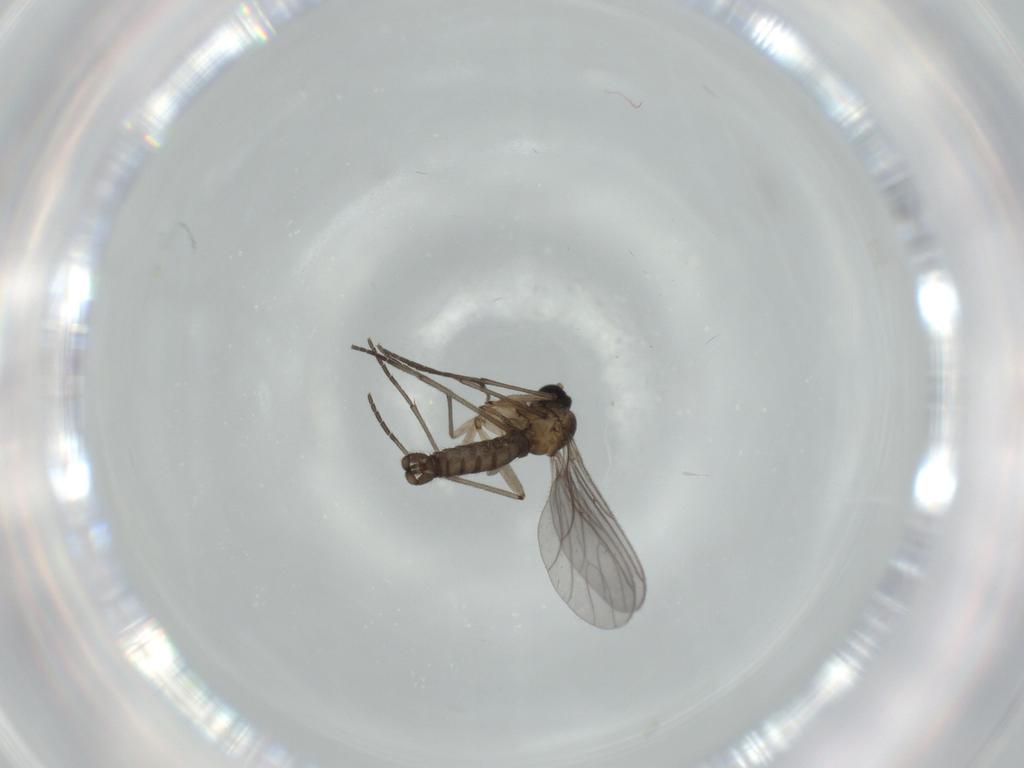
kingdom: Animalia
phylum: Arthropoda
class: Insecta
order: Diptera
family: Sciaridae
